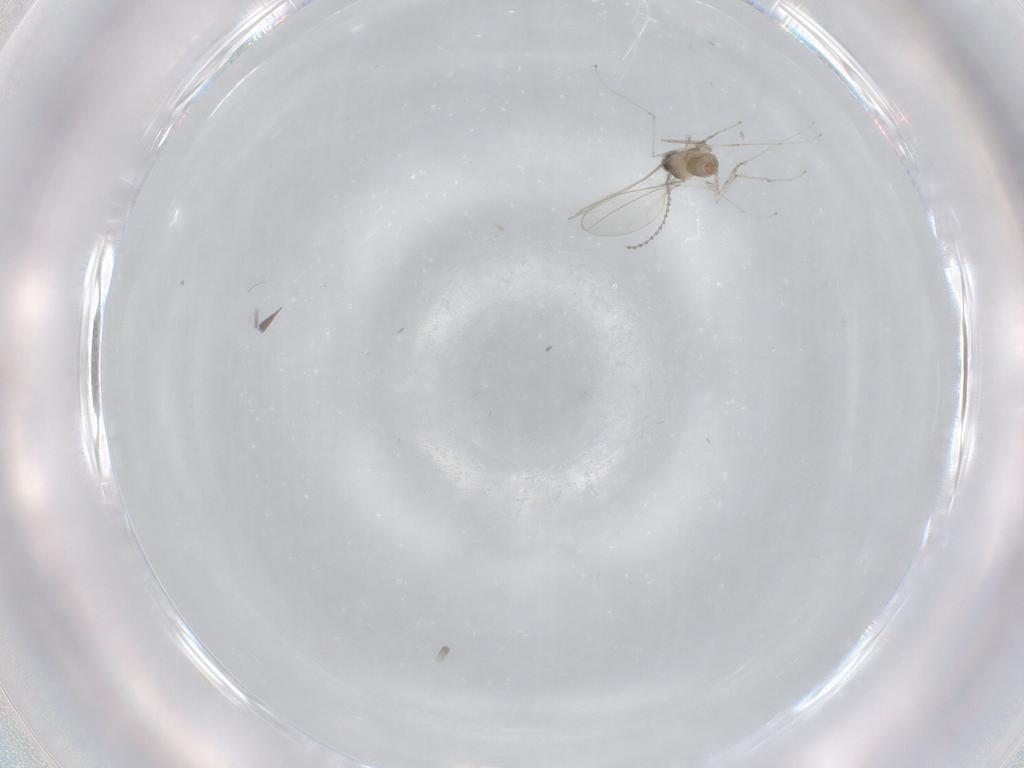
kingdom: Animalia
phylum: Arthropoda
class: Insecta
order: Diptera
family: Cecidomyiidae
